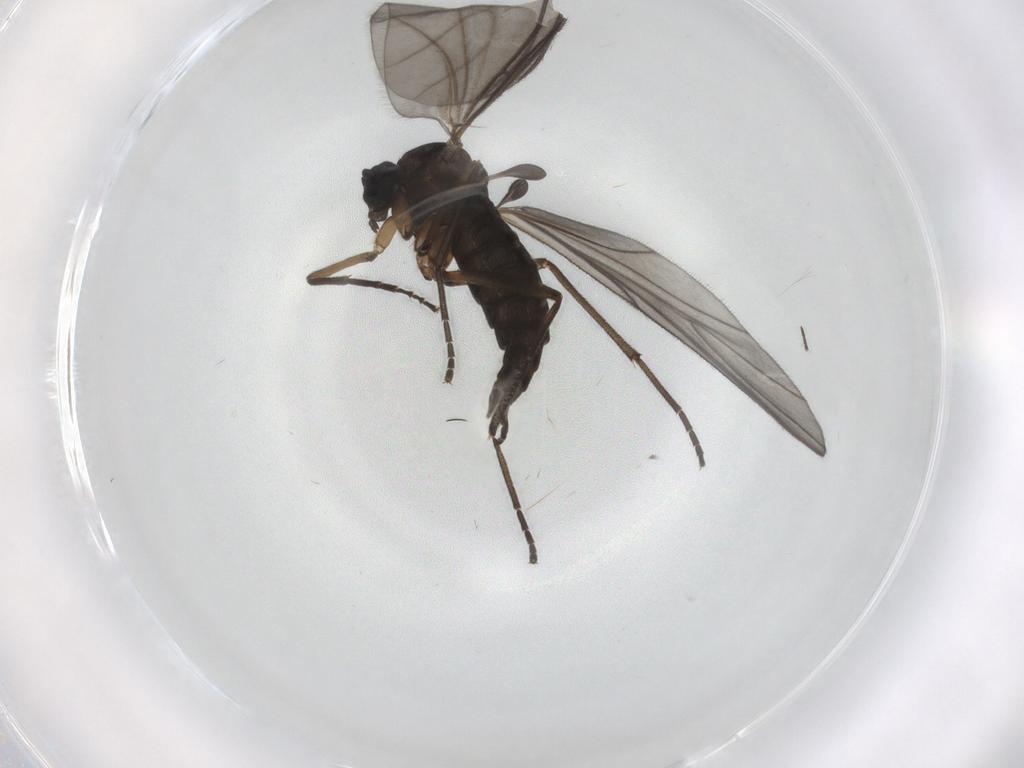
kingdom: Animalia
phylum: Arthropoda
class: Insecta
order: Diptera
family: Sciaridae
